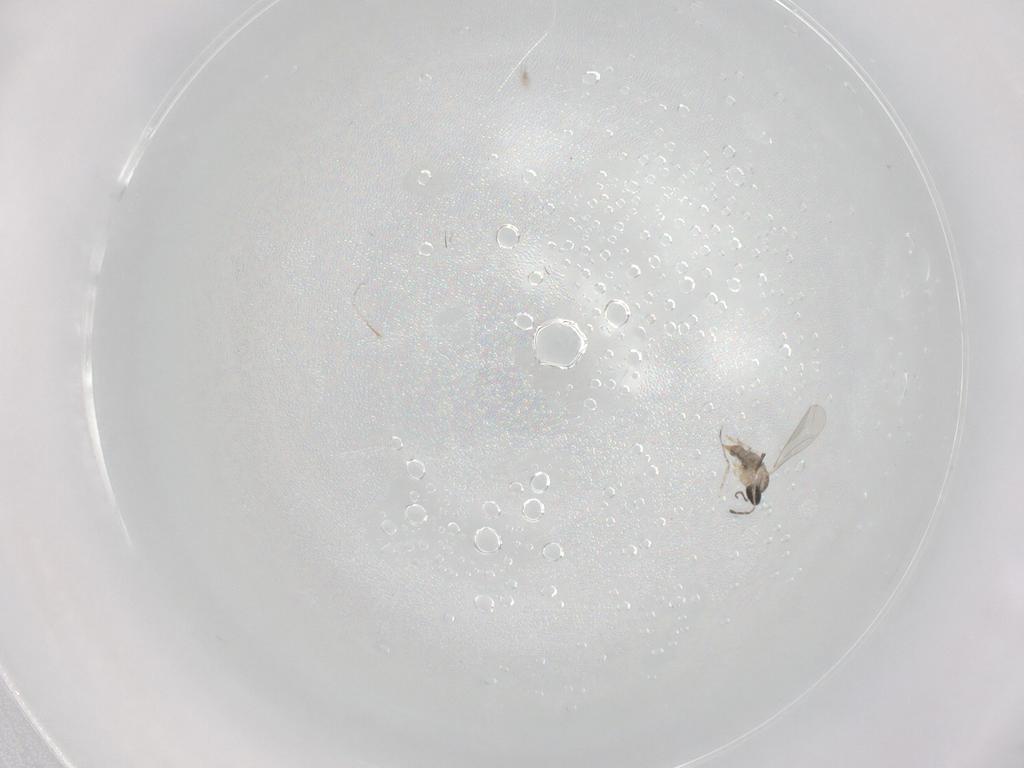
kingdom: Animalia
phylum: Arthropoda
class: Insecta
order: Diptera
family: Cecidomyiidae
